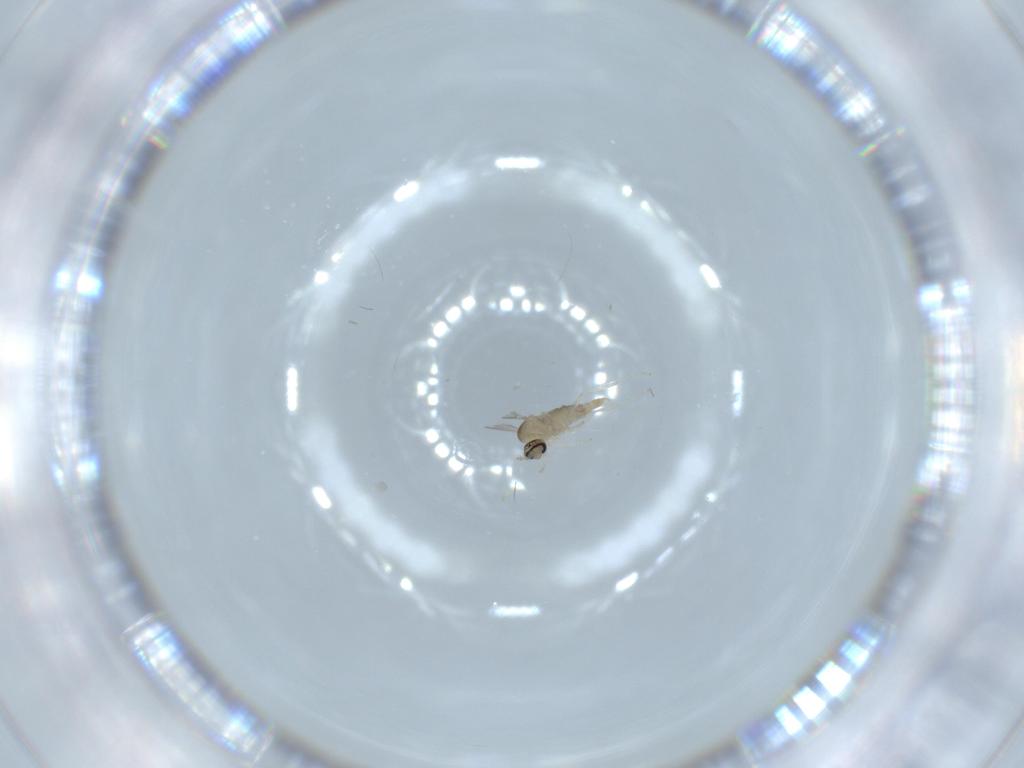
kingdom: Animalia
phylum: Arthropoda
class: Insecta
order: Diptera
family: Cecidomyiidae
